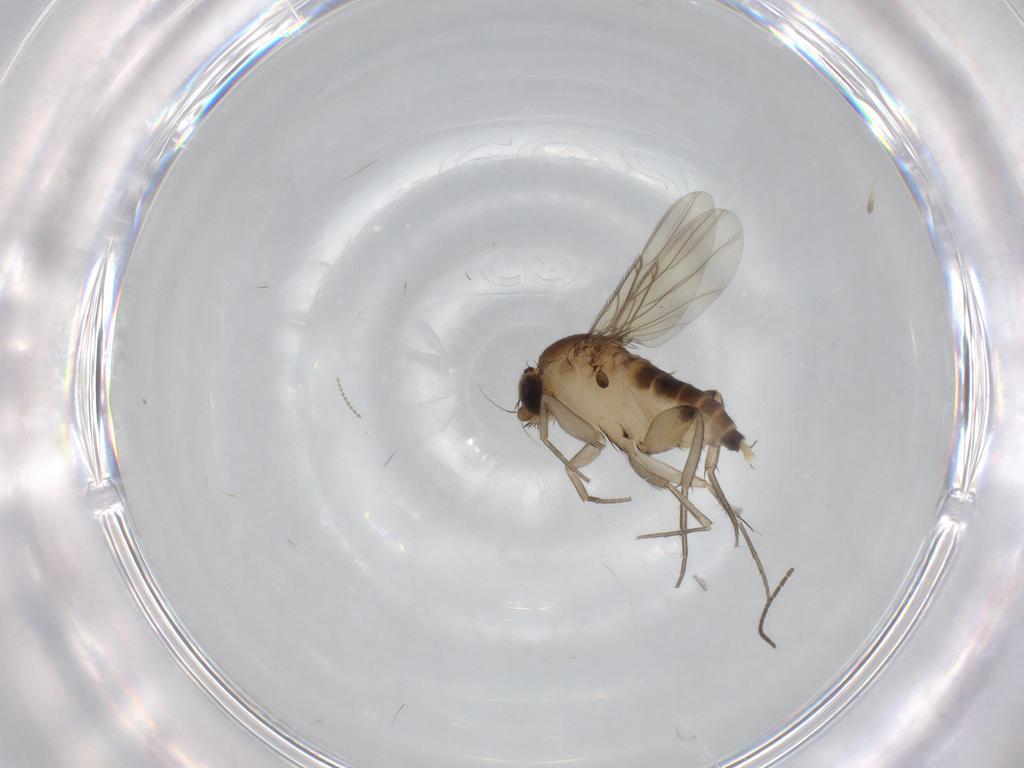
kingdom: Animalia
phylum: Arthropoda
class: Insecta
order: Diptera
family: Phoridae
